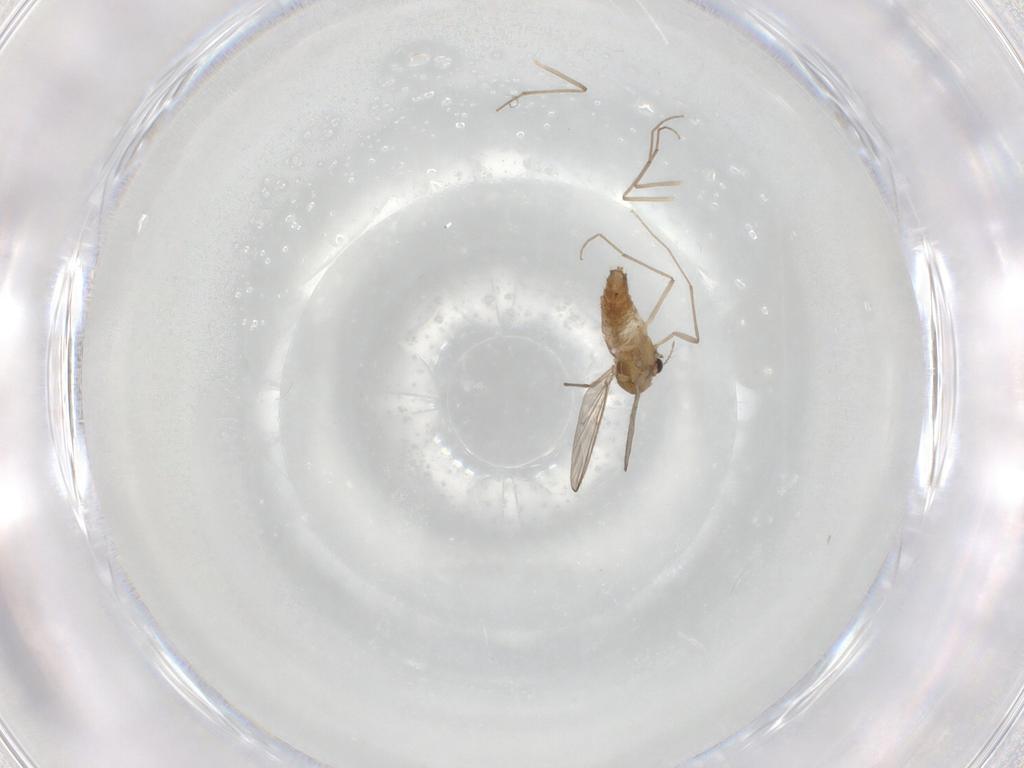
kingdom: Animalia
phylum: Arthropoda
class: Insecta
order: Diptera
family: Chironomidae
